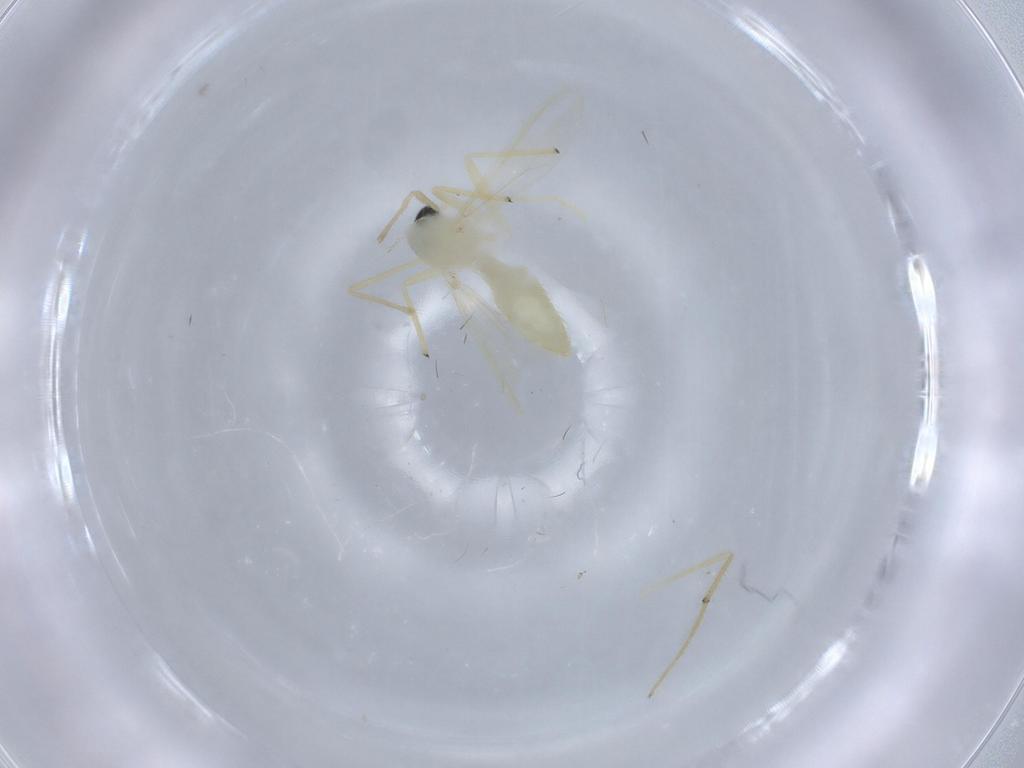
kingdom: Animalia
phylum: Arthropoda
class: Insecta
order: Diptera
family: Chironomidae
